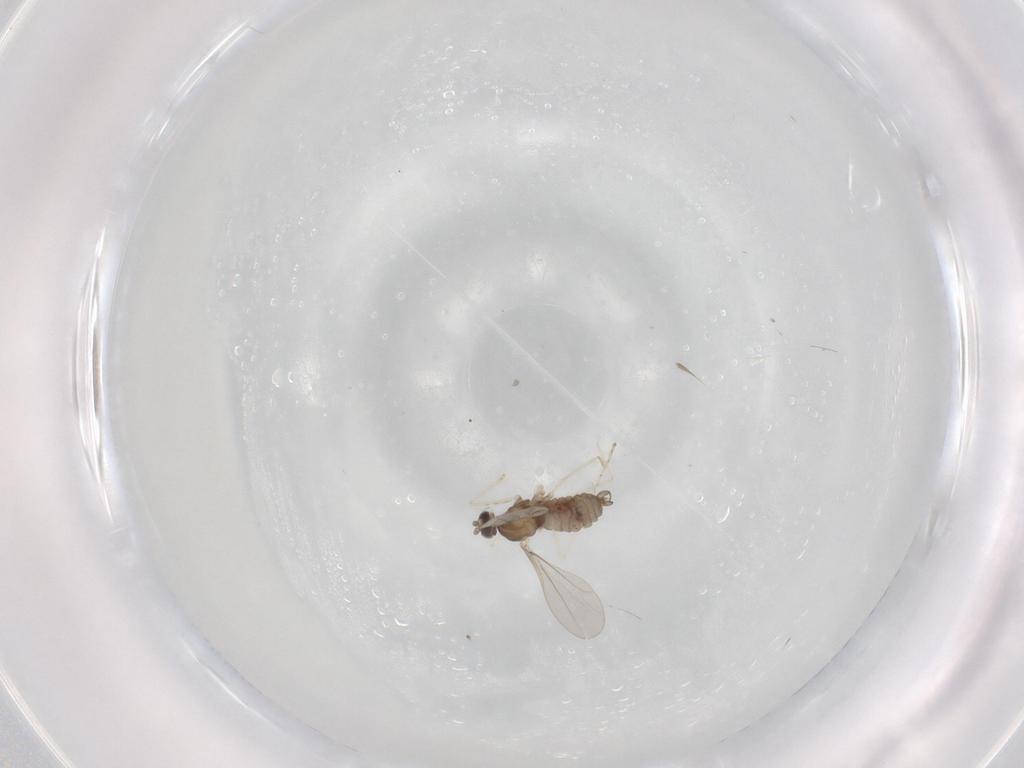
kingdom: Animalia
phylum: Arthropoda
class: Insecta
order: Diptera
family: Cecidomyiidae
